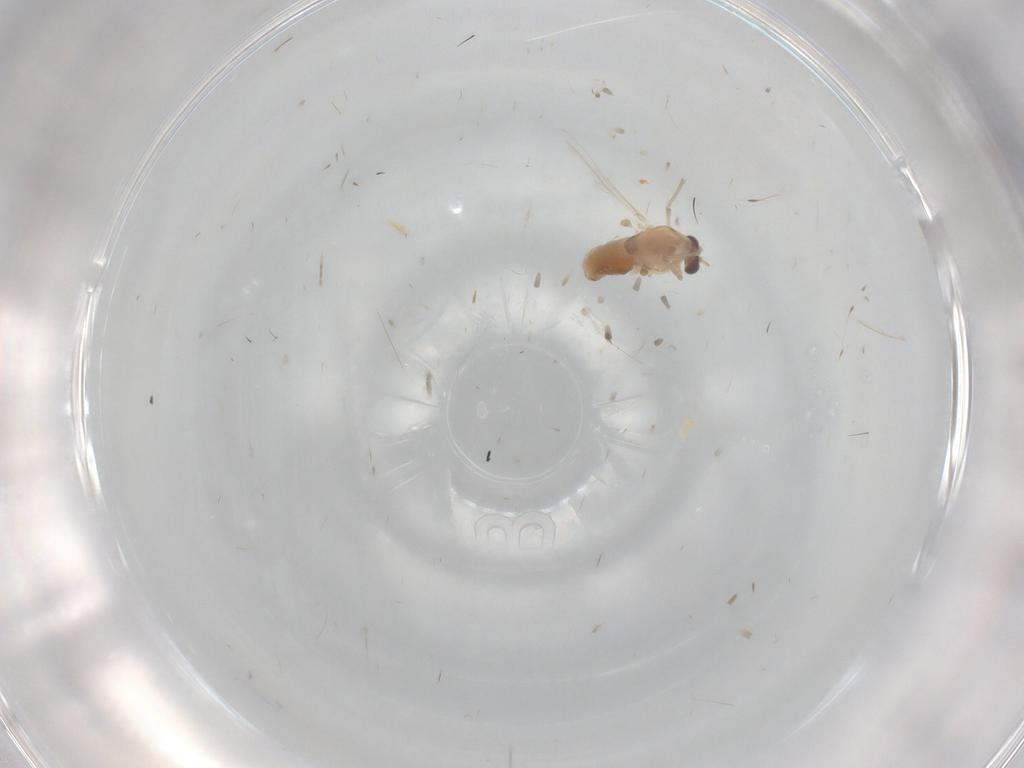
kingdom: Animalia
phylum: Arthropoda
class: Insecta
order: Diptera
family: Chironomidae
